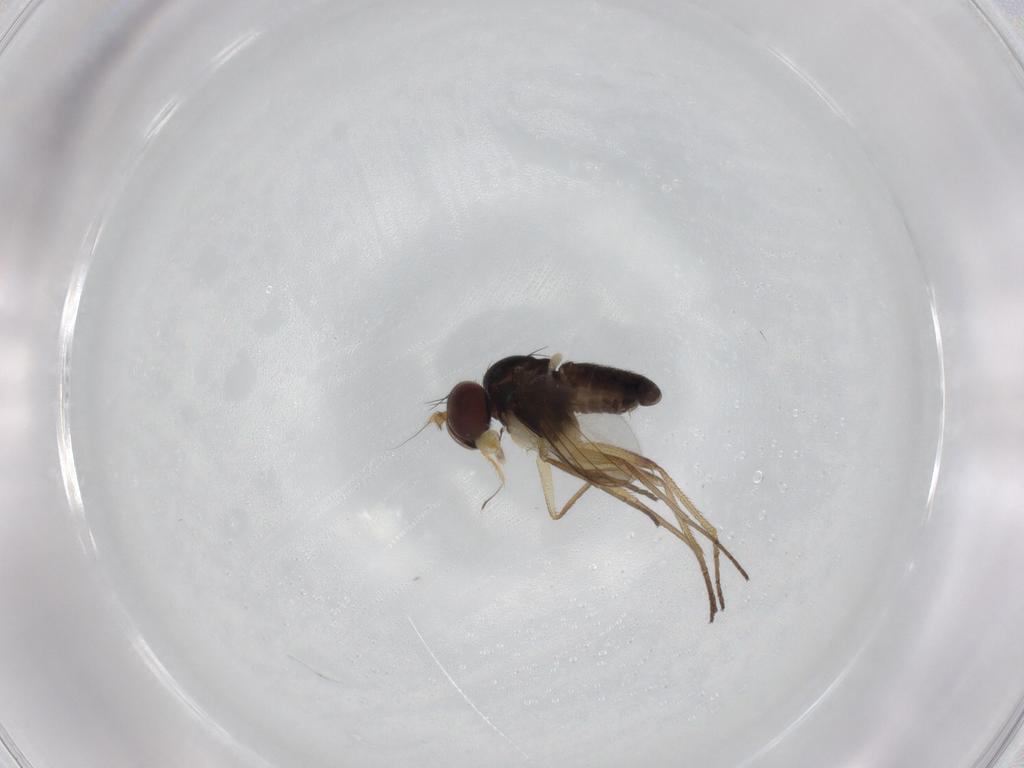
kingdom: Animalia
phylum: Arthropoda
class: Insecta
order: Diptera
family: Dolichopodidae
